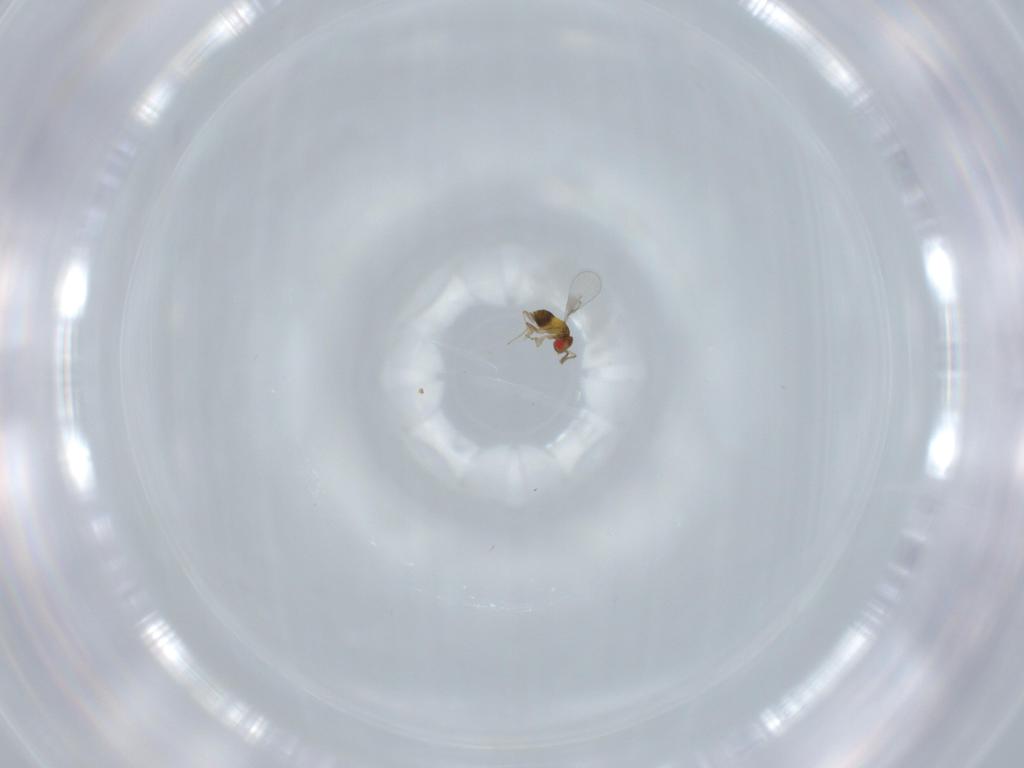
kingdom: Animalia
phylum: Arthropoda
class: Insecta
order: Hymenoptera
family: Trichogrammatidae
